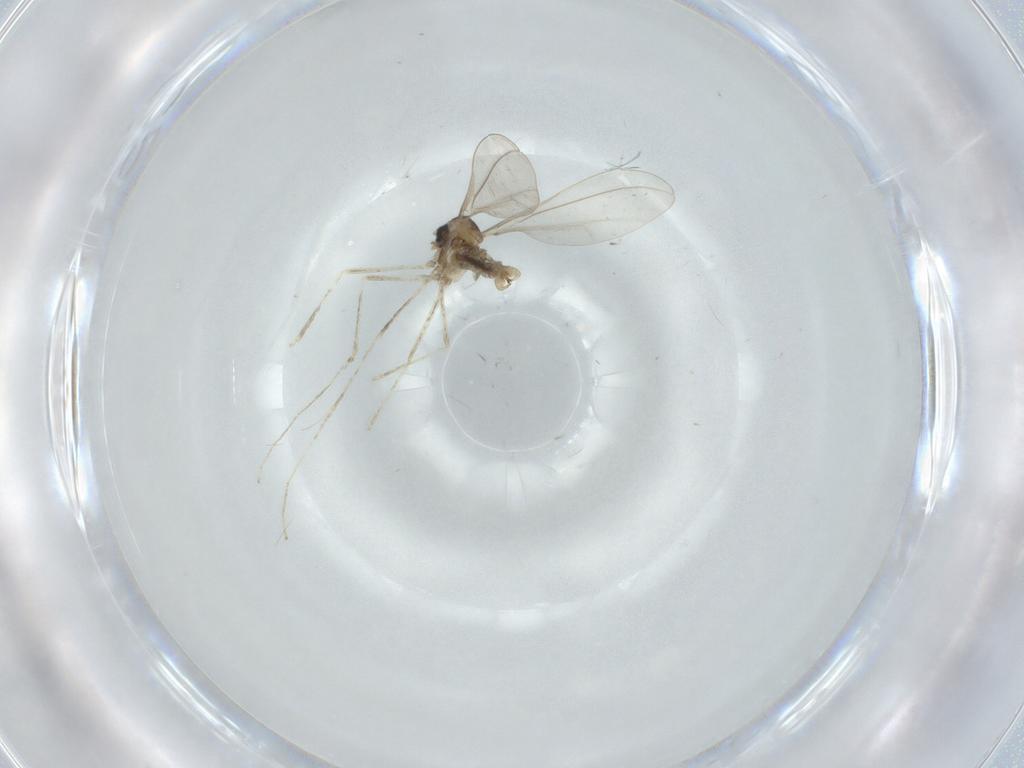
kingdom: Animalia
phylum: Arthropoda
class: Insecta
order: Diptera
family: Cecidomyiidae
